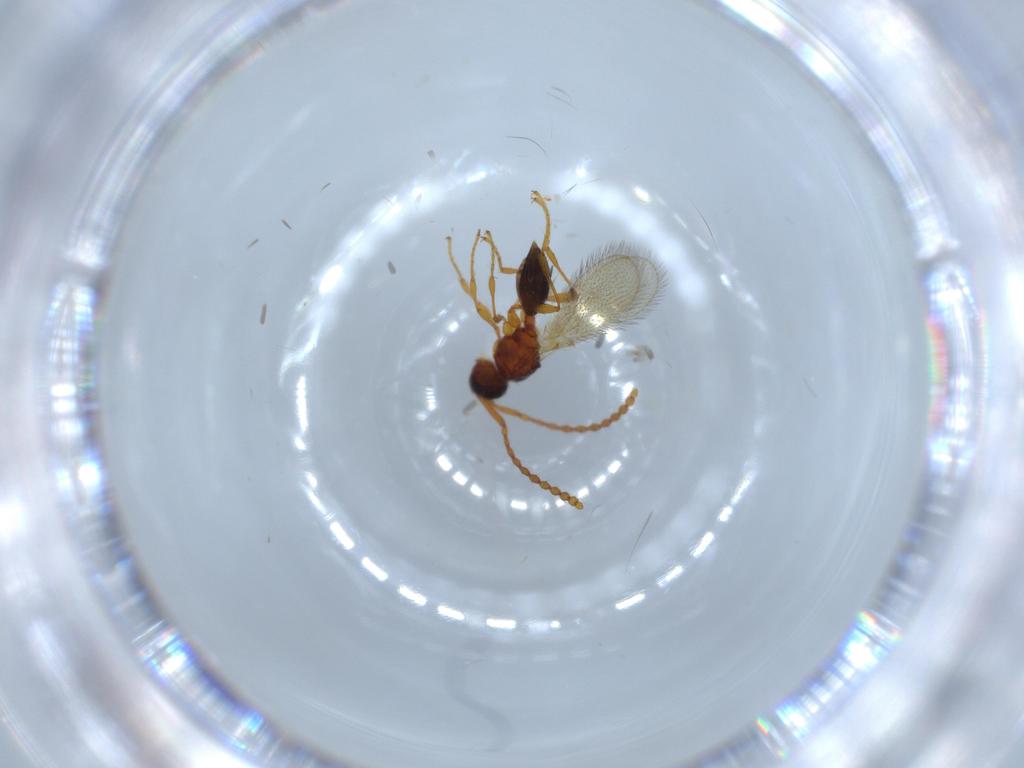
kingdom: Animalia
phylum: Arthropoda
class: Insecta
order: Hymenoptera
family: Diapriidae
